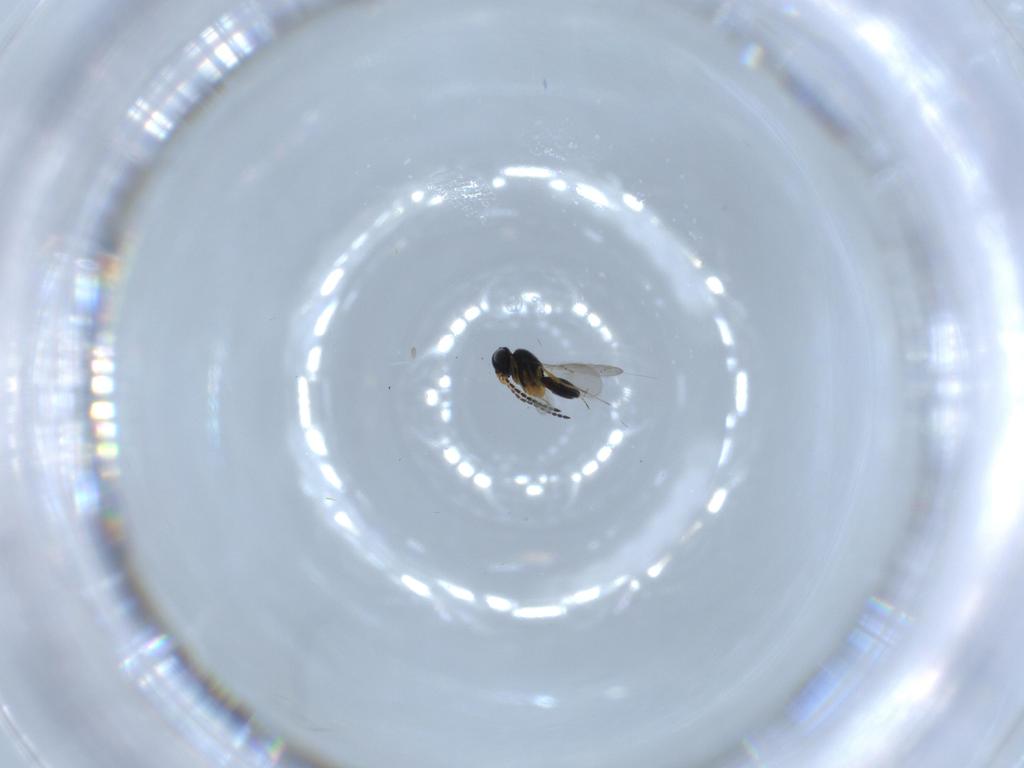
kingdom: Animalia
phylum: Arthropoda
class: Insecta
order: Hymenoptera
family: Scelionidae
